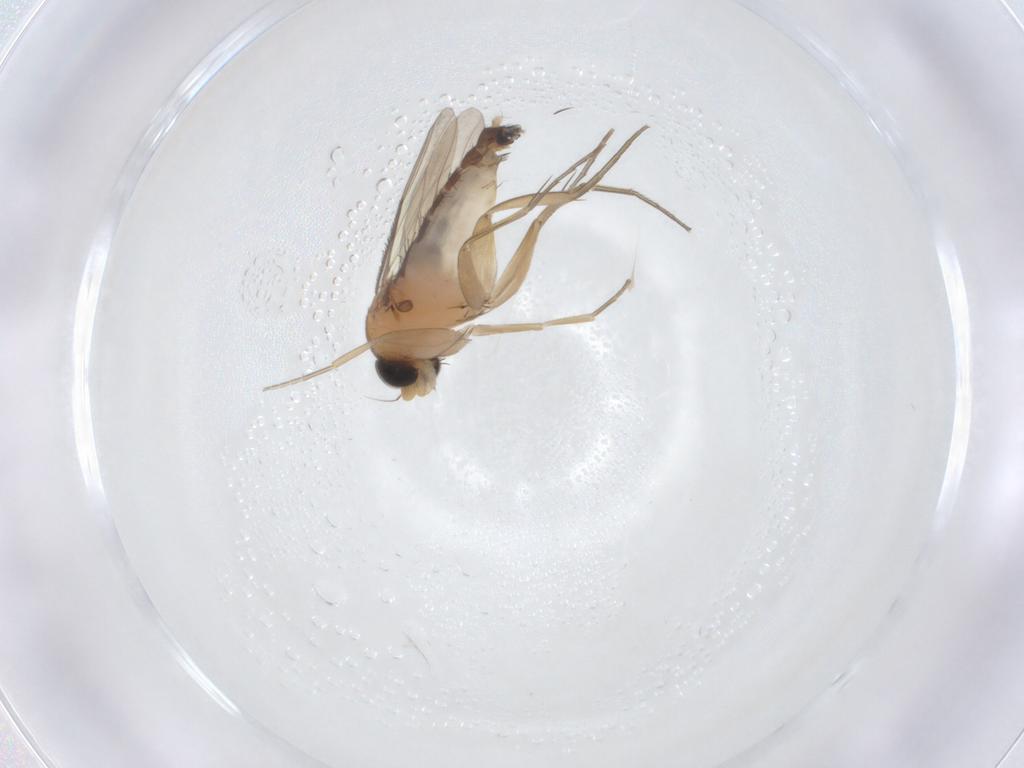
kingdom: Animalia
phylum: Arthropoda
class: Insecta
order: Diptera
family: Phoridae
